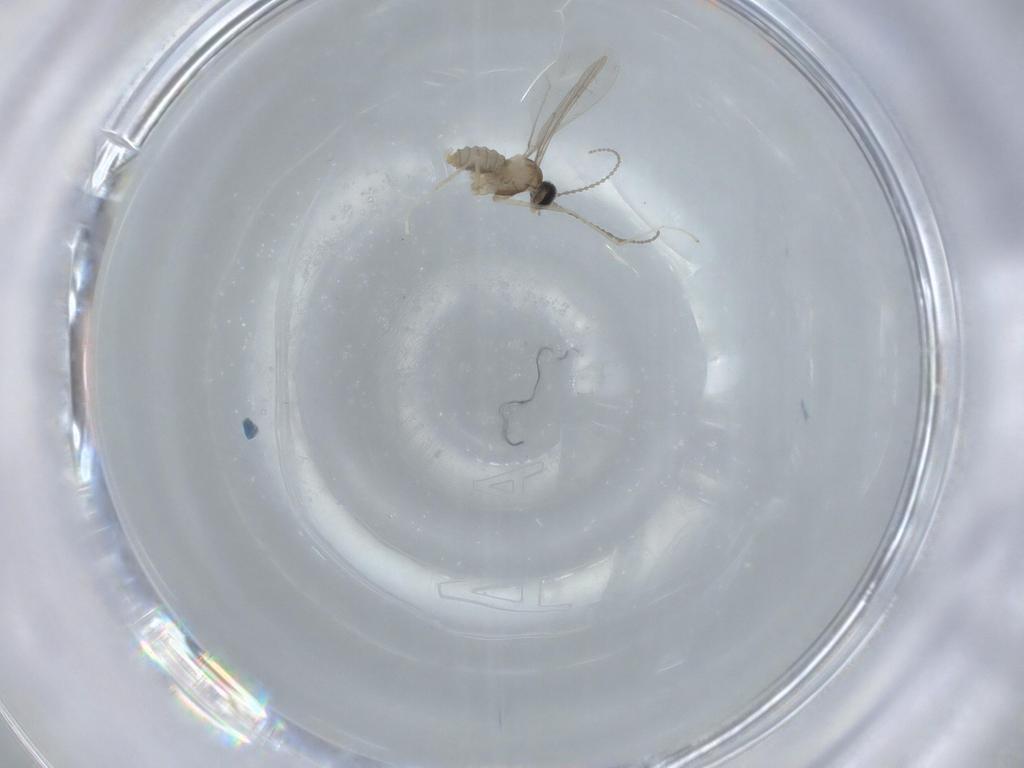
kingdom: Animalia
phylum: Arthropoda
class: Insecta
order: Diptera
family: Cecidomyiidae
